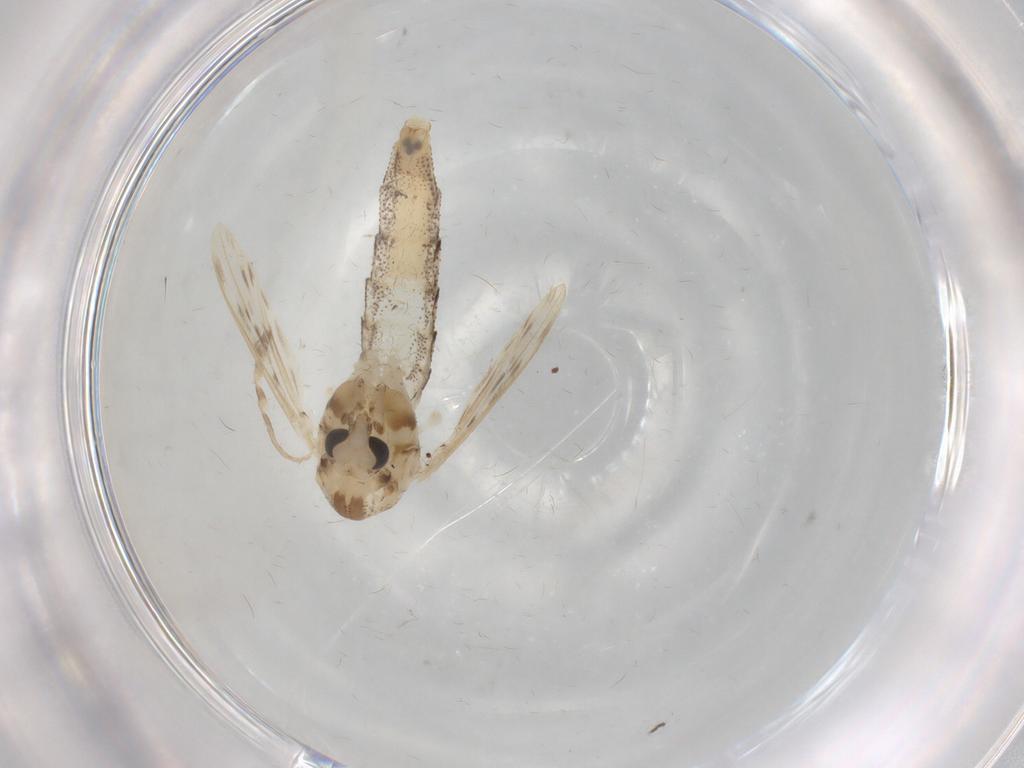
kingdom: Animalia
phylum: Arthropoda
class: Insecta
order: Diptera
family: Chaoboridae
